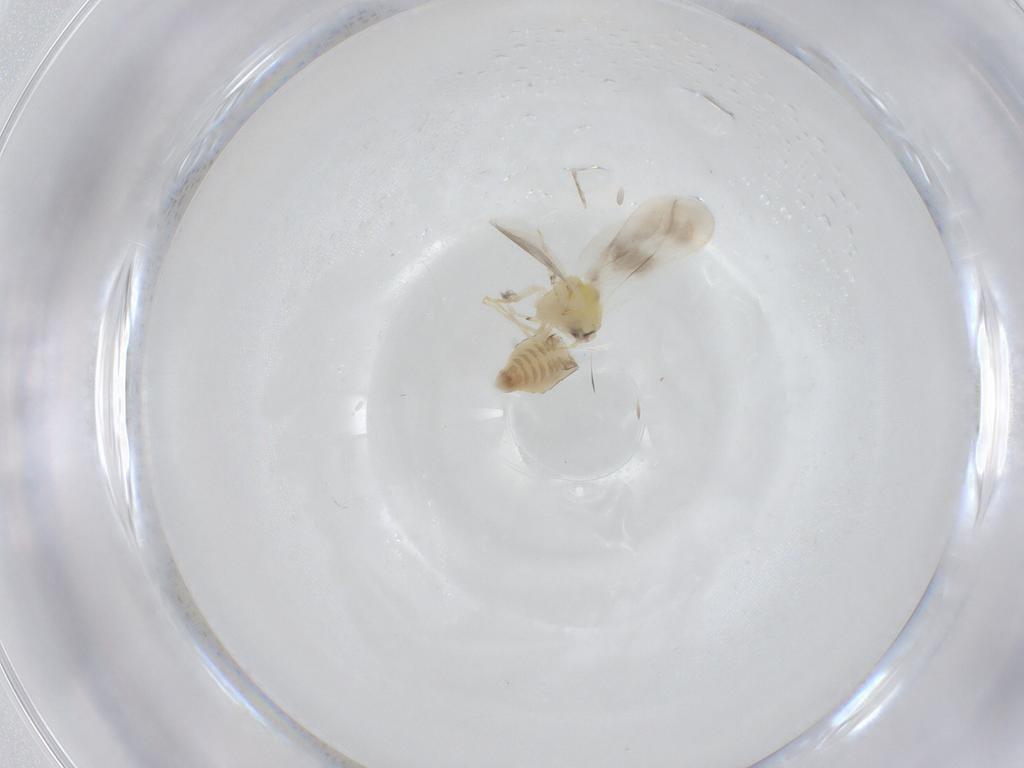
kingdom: Animalia
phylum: Arthropoda
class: Insecta
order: Hemiptera
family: Aleyrodidae
